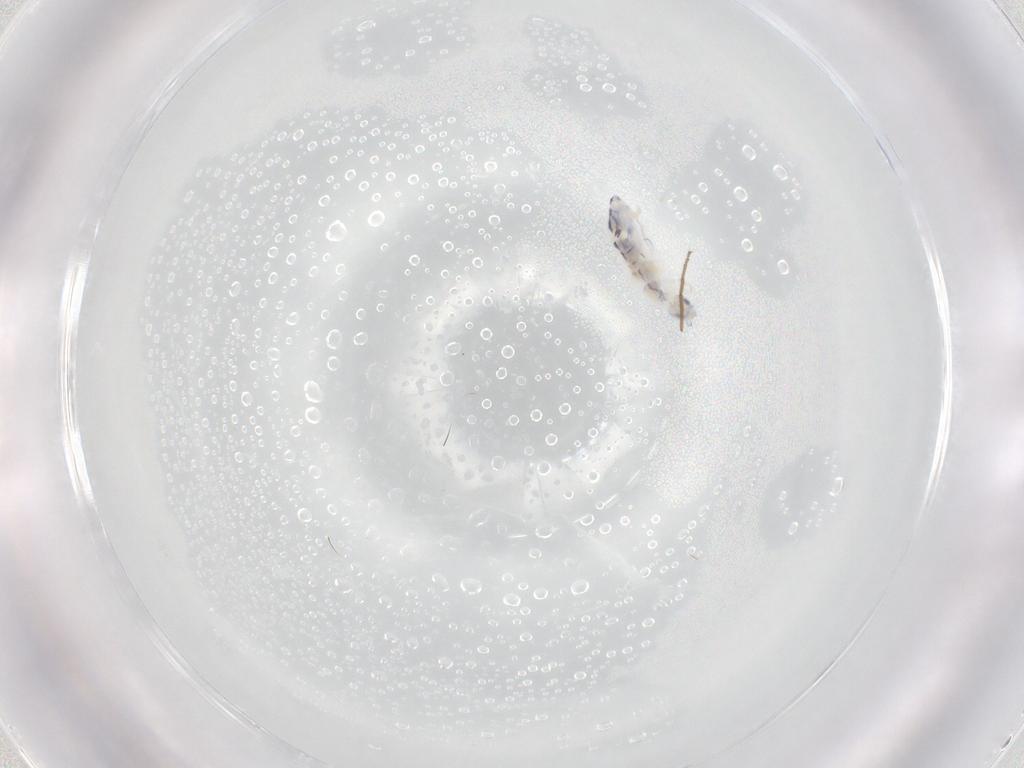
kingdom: Animalia
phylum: Arthropoda
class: Collembola
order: Entomobryomorpha
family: Entomobryidae
